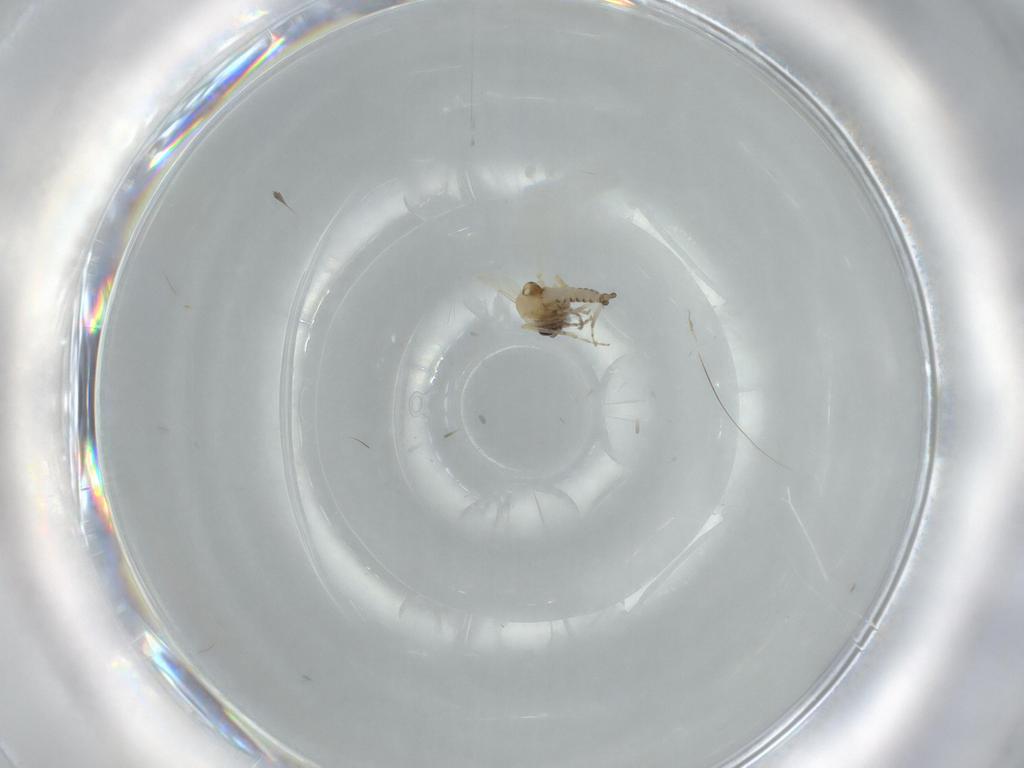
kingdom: Animalia
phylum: Arthropoda
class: Insecta
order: Diptera
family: Ceratopogonidae
